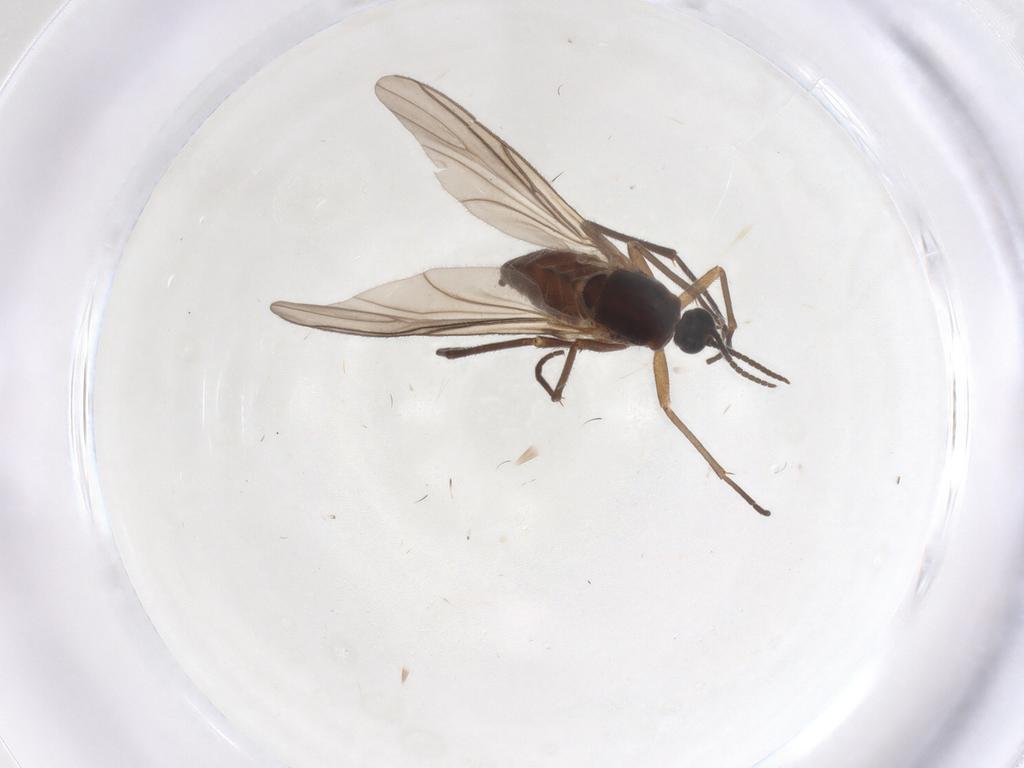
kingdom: Animalia
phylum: Arthropoda
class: Insecta
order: Diptera
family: Sciaridae
